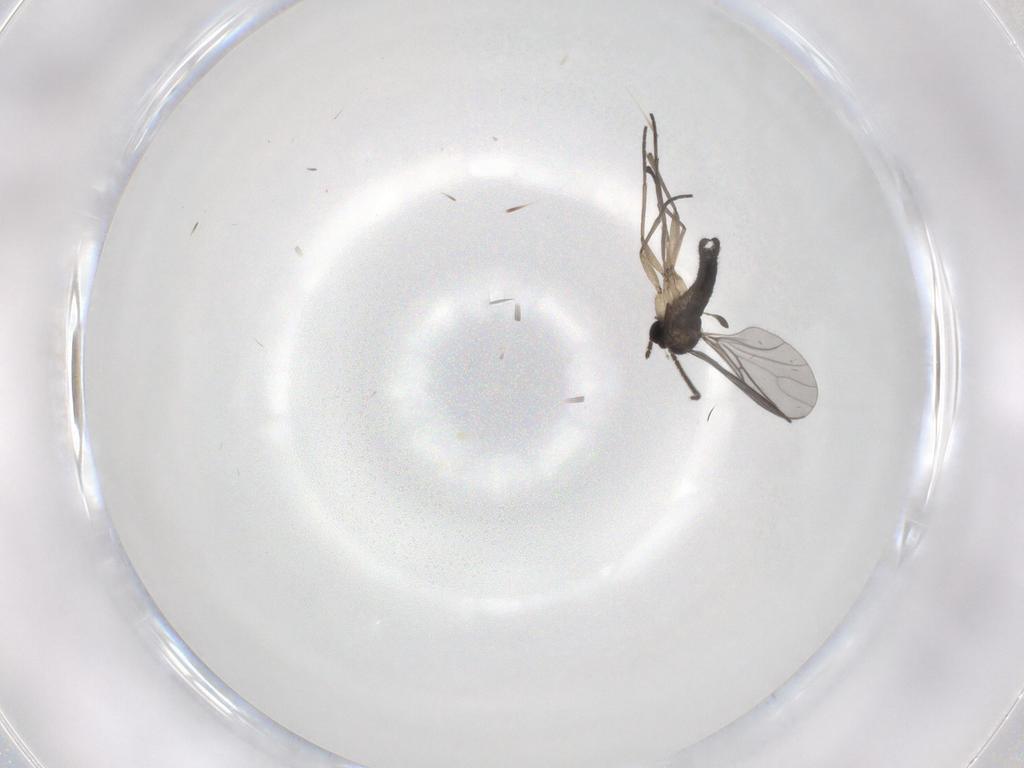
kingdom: Animalia
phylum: Arthropoda
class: Insecta
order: Diptera
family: Sciaridae
